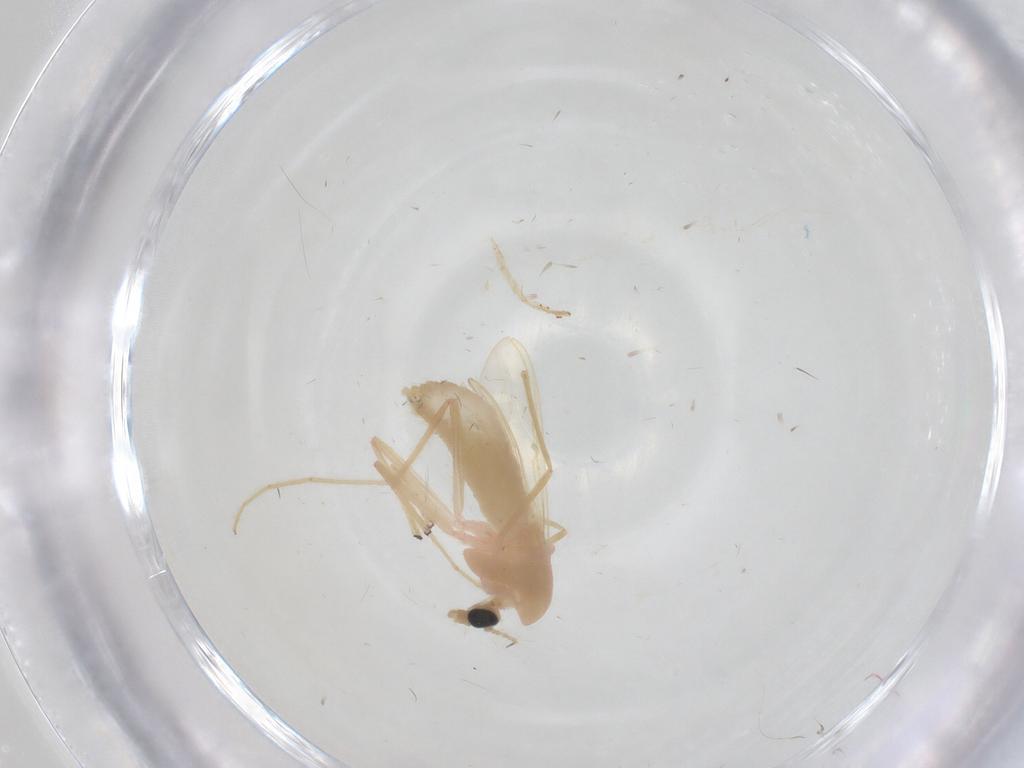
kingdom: Animalia
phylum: Arthropoda
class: Insecta
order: Diptera
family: Chironomidae
